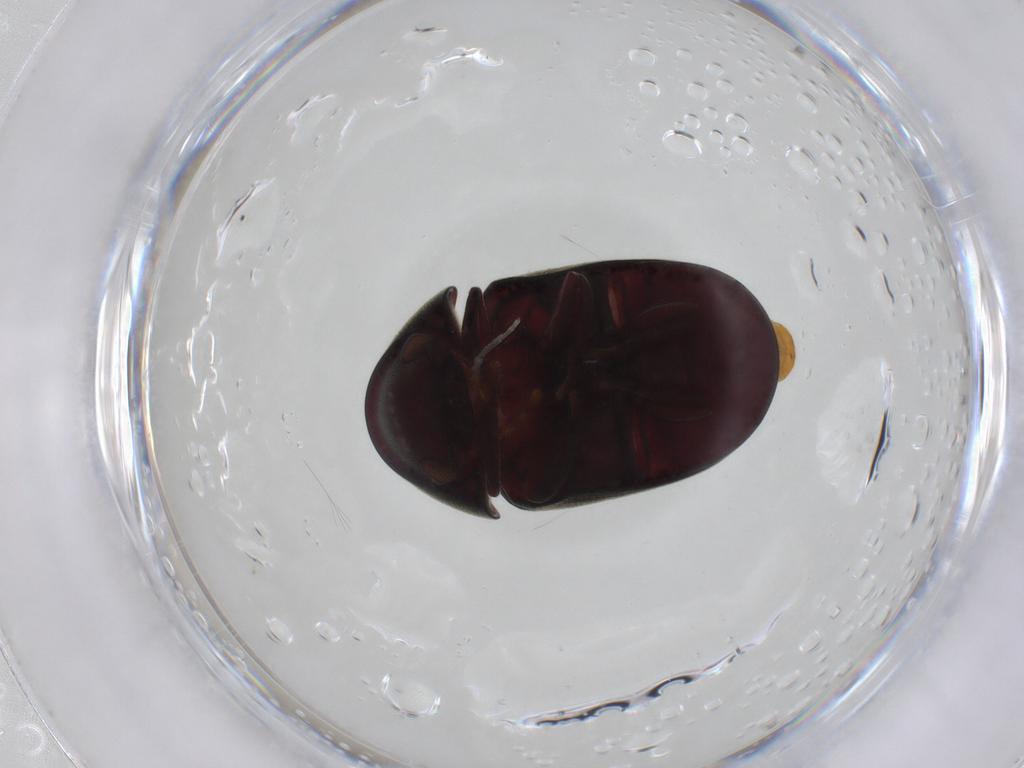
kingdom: Animalia
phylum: Arthropoda
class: Insecta
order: Coleoptera
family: Ptinidae
